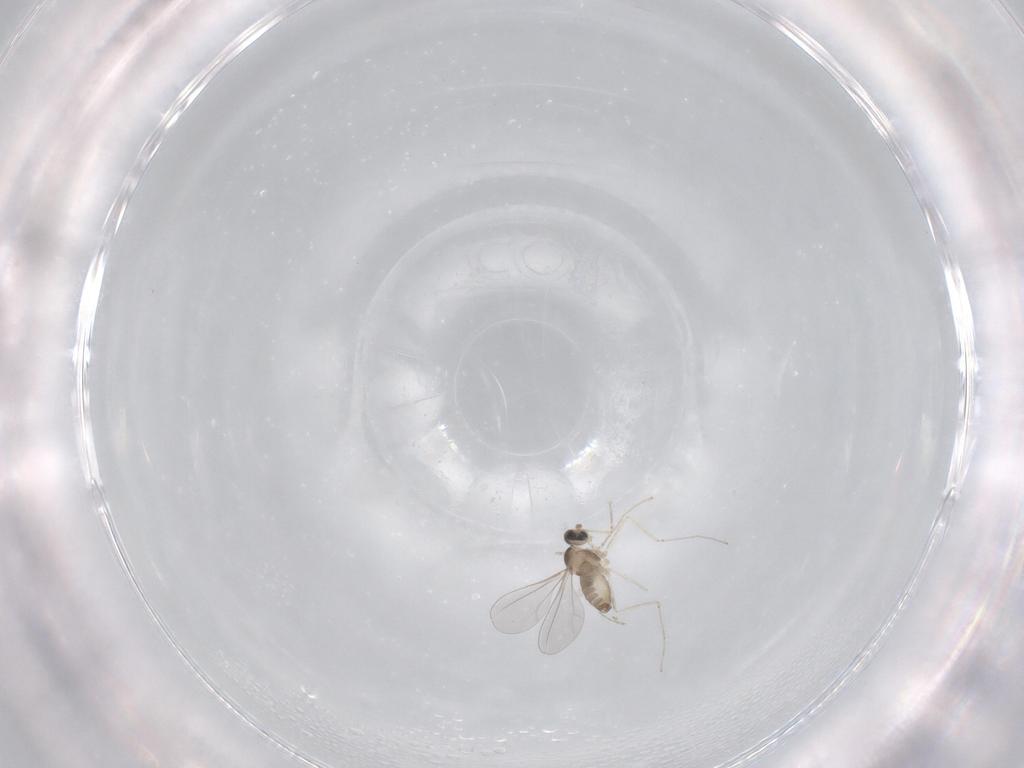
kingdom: Animalia
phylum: Arthropoda
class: Insecta
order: Diptera
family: Cecidomyiidae
